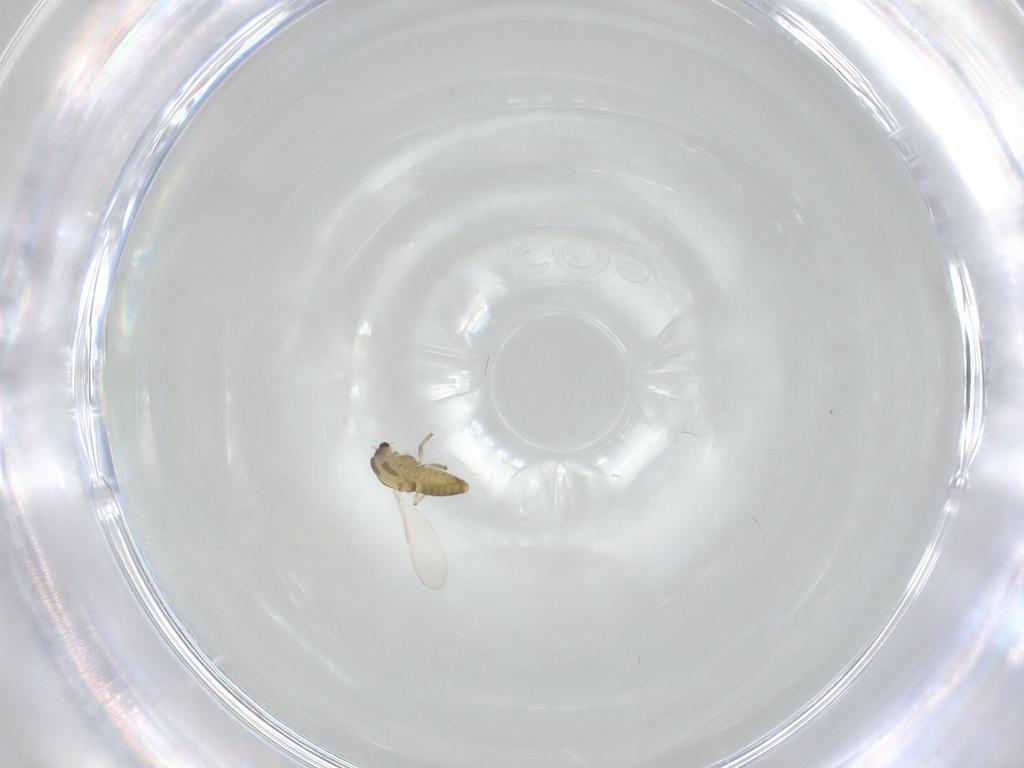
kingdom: Animalia
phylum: Arthropoda
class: Insecta
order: Diptera
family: Chironomidae
